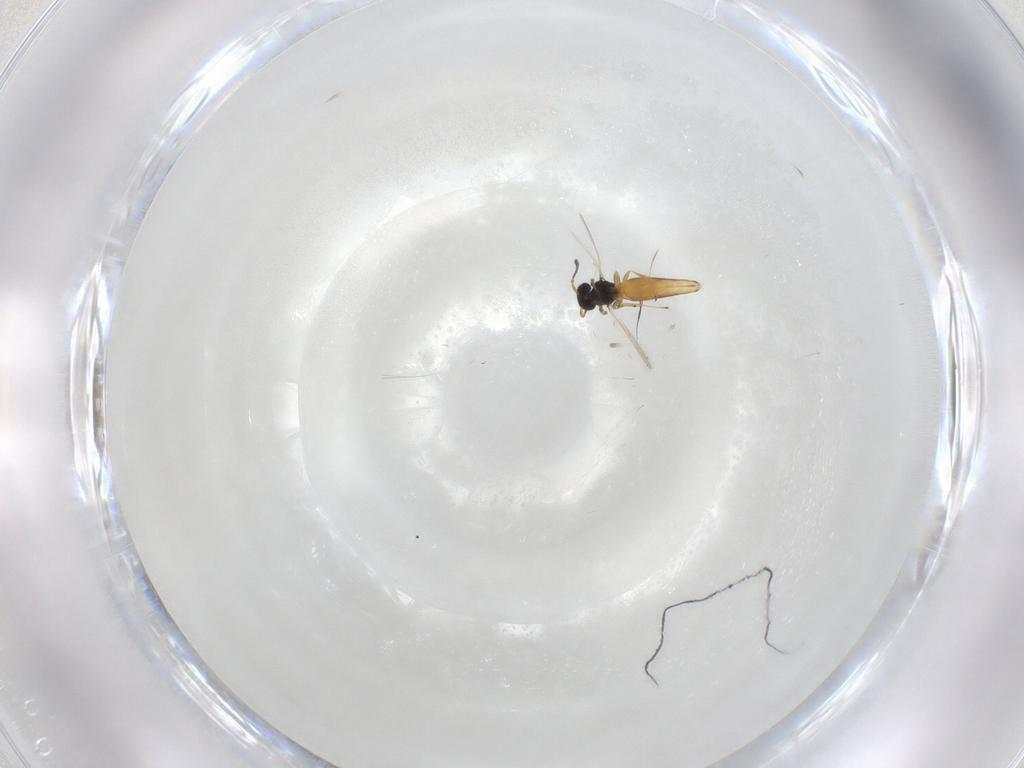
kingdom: Animalia
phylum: Arthropoda
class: Insecta
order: Hymenoptera
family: Scelionidae
